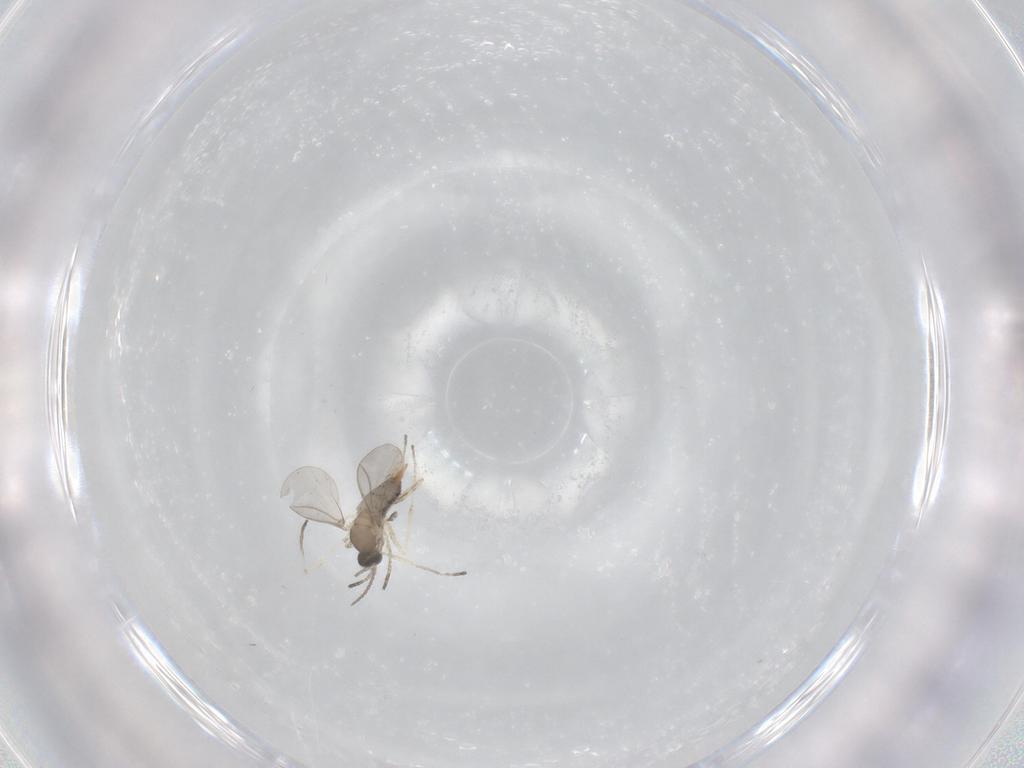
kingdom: Animalia
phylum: Arthropoda
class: Insecta
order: Diptera
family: Cecidomyiidae
